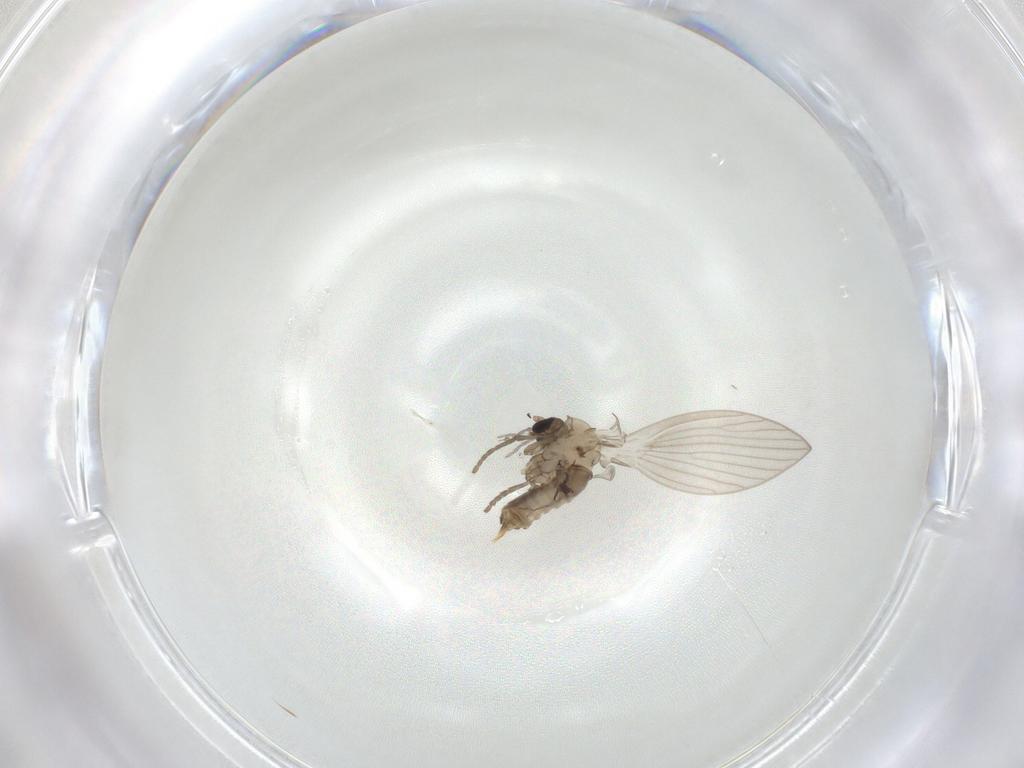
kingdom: Animalia
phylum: Arthropoda
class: Insecta
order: Diptera
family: Psychodidae
